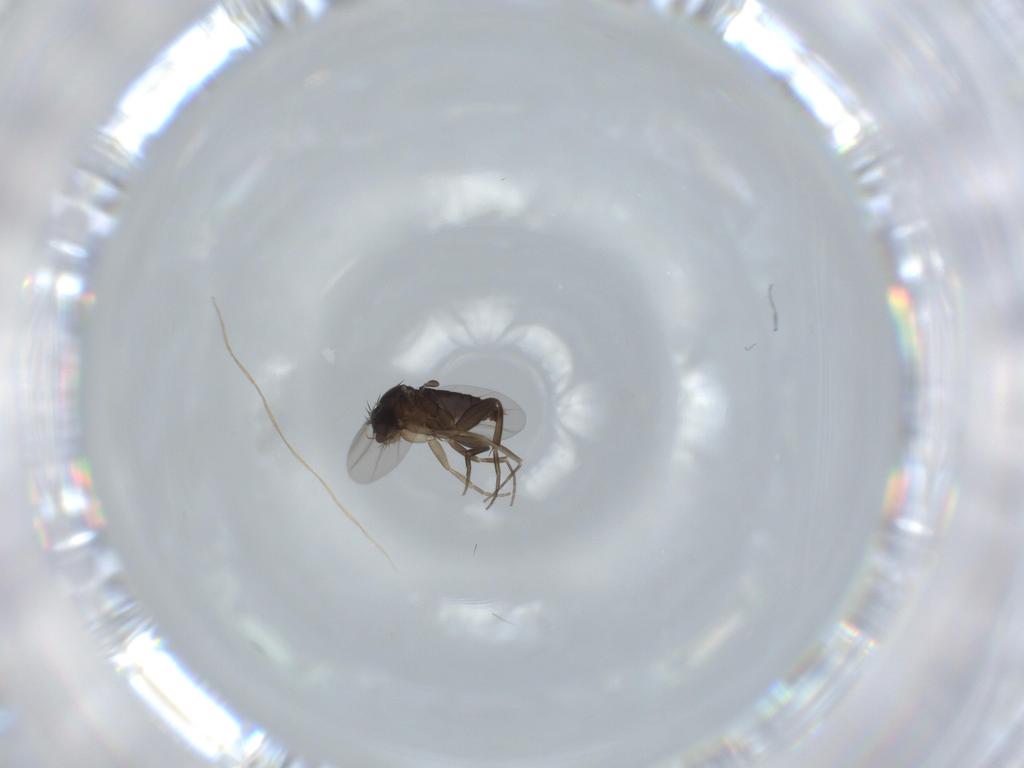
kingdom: Animalia
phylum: Arthropoda
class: Insecta
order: Diptera
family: Phoridae
